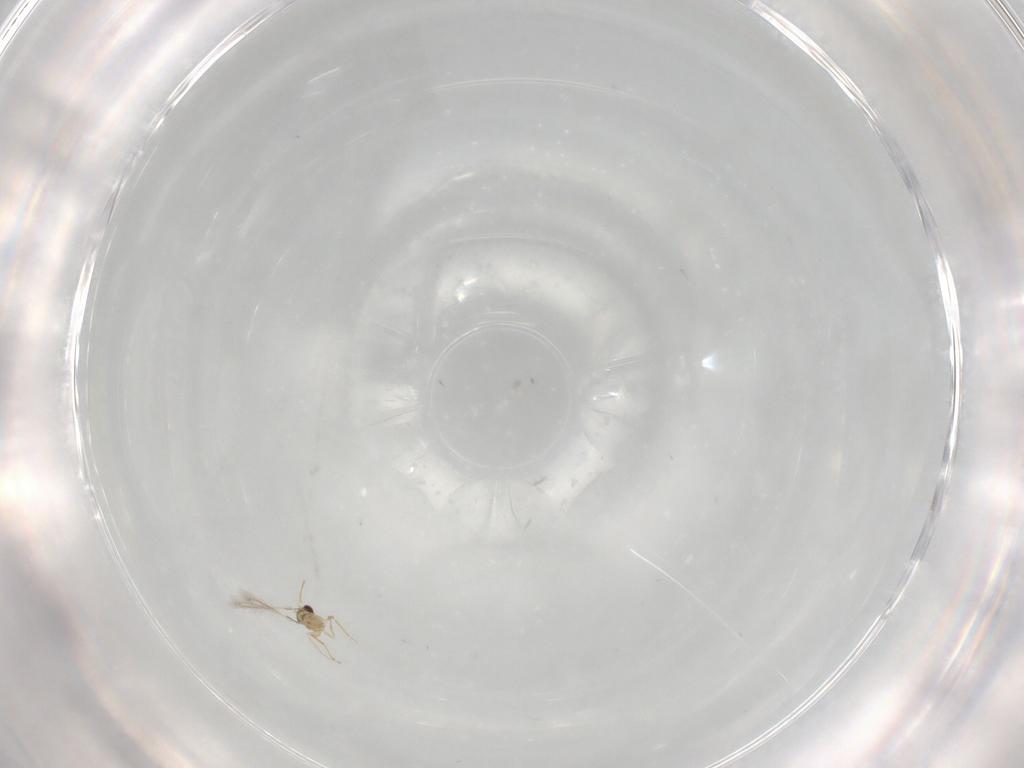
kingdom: Animalia
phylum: Arthropoda
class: Insecta
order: Hymenoptera
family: Mymaridae
